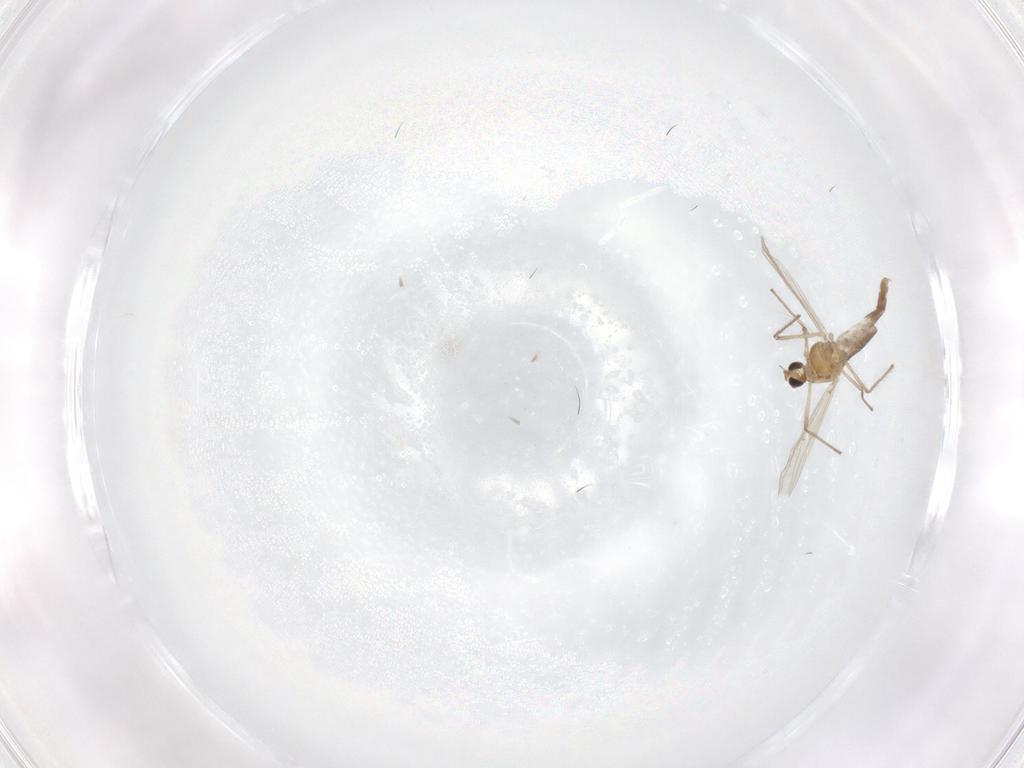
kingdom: Animalia
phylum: Arthropoda
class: Insecta
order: Diptera
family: Chironomidae
